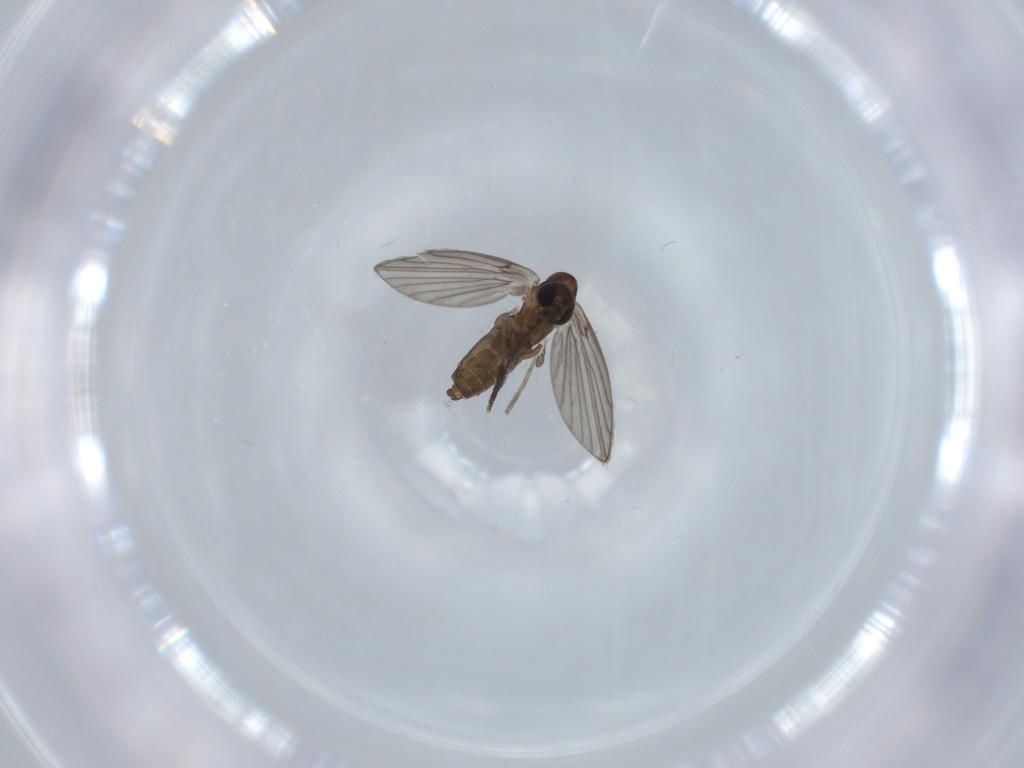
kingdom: Animalia
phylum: Arthropoda
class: Insecta
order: Diptera
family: Psychodidae
